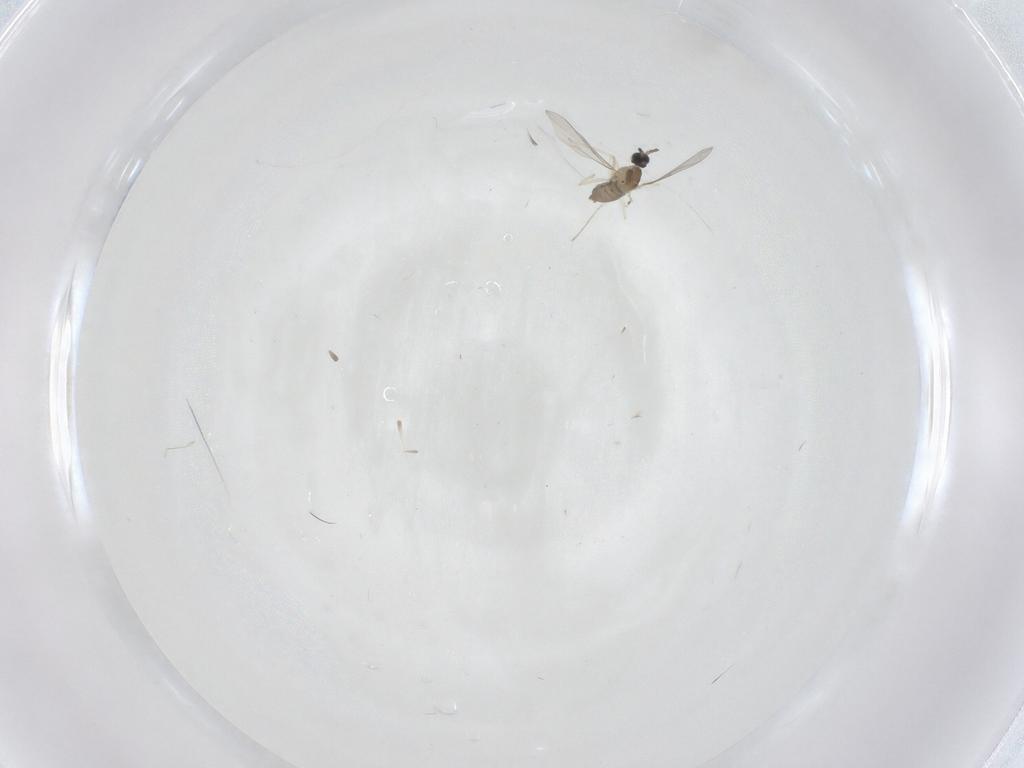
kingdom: Animalia
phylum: Arthropoda
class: Insecta
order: Diptera
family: Cecidomyiidae
